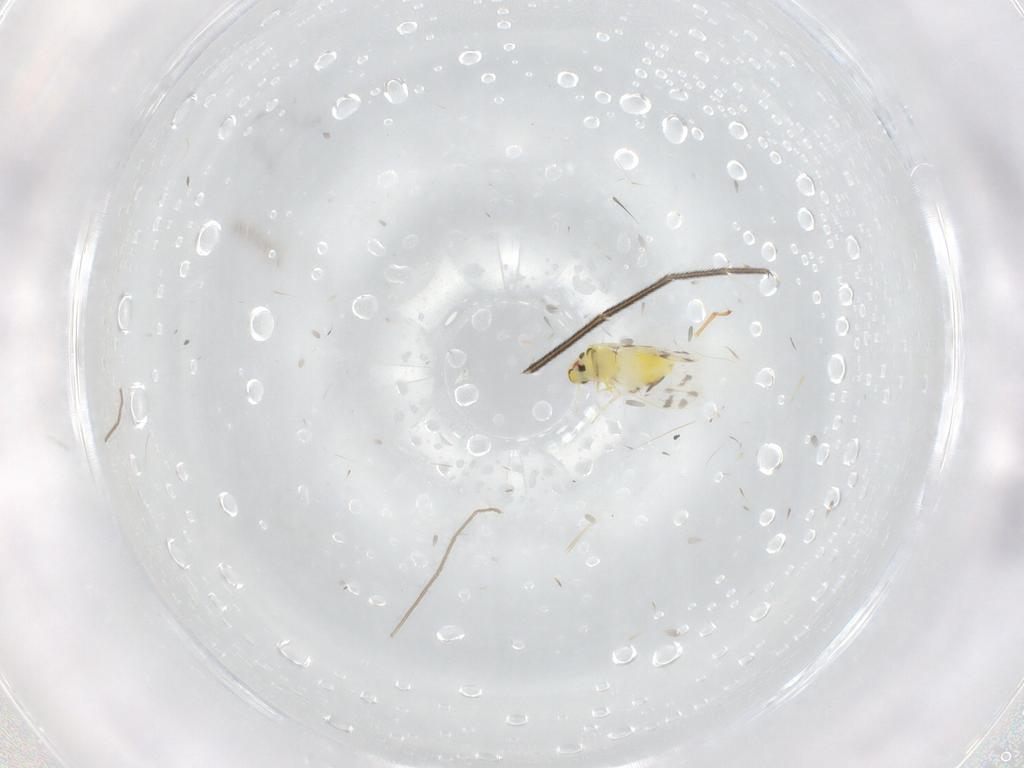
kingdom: Animalia
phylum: Arthropoda
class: Insecta
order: Hemiptera
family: Aleyrodidae
